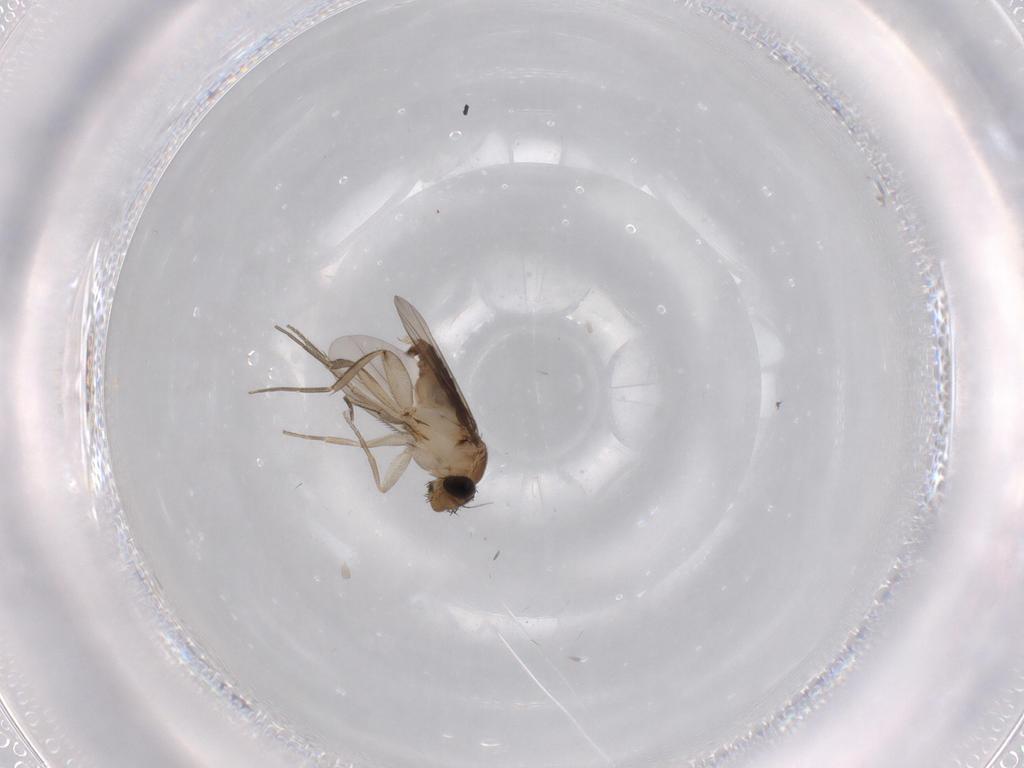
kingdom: Animalia
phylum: Arthropoda
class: Insecta
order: Diptera
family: Phoridae
